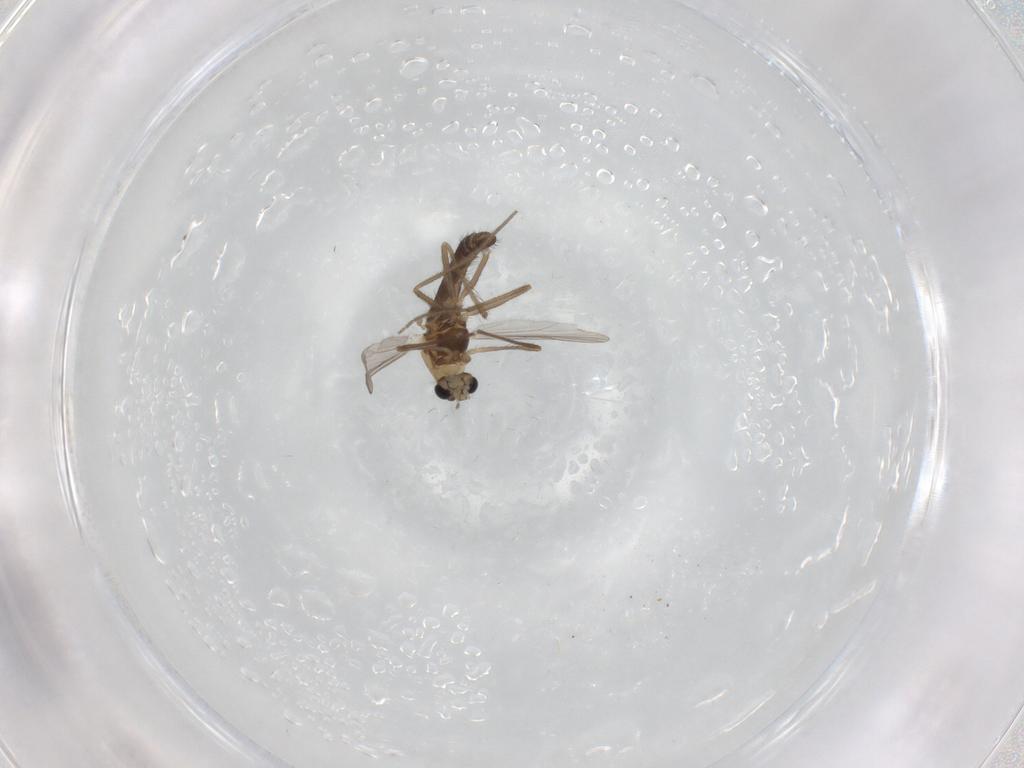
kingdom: Animalia
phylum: Arthropoda
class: Insecta
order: Diptera
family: Chironomidae
